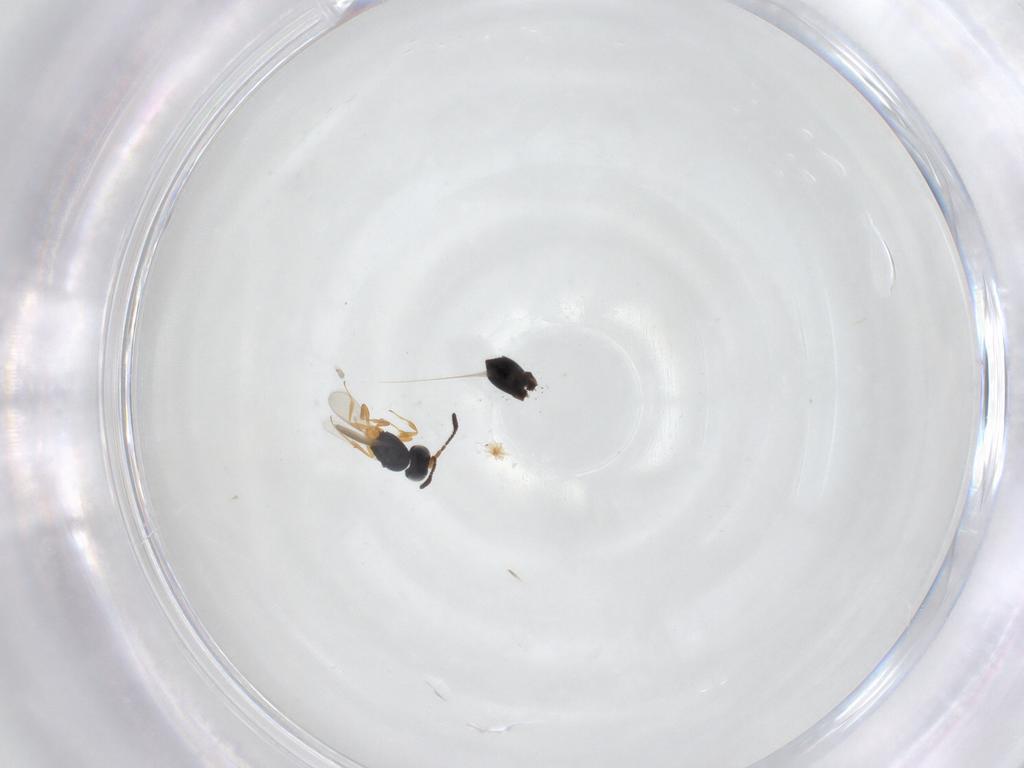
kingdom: Animalia
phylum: Arthropoda
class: Insecta
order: Hymenoptera
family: Scelionidae
